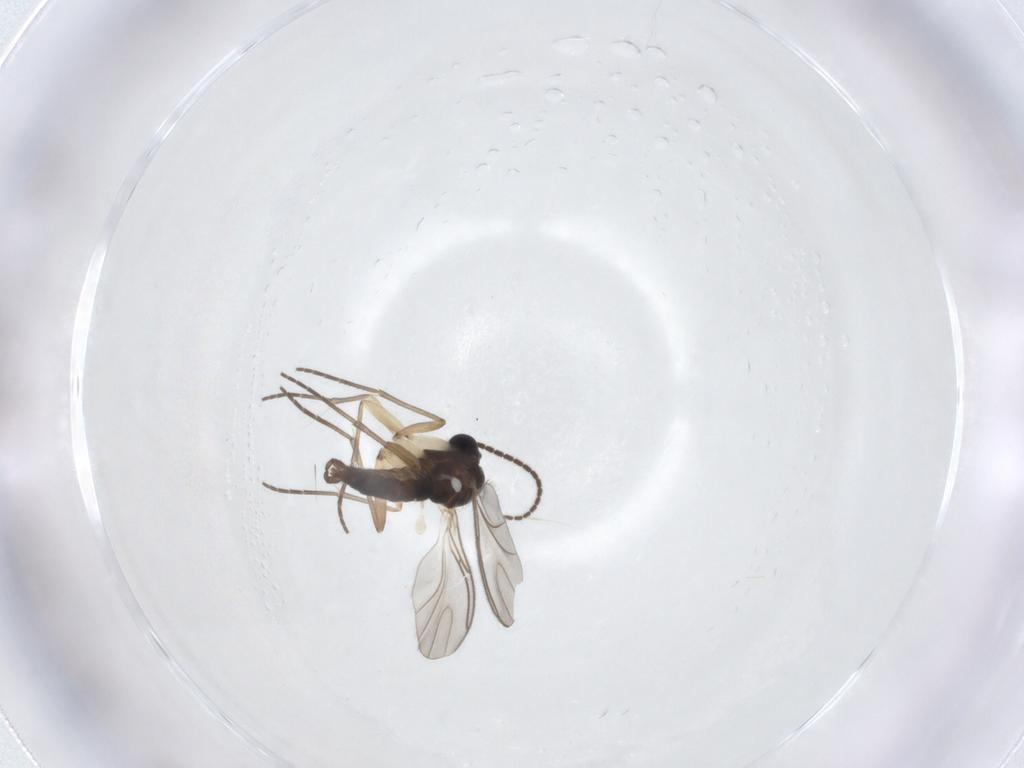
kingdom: Animalia
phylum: Arthropoda
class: Insecta
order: Diptera
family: Sciaridae
